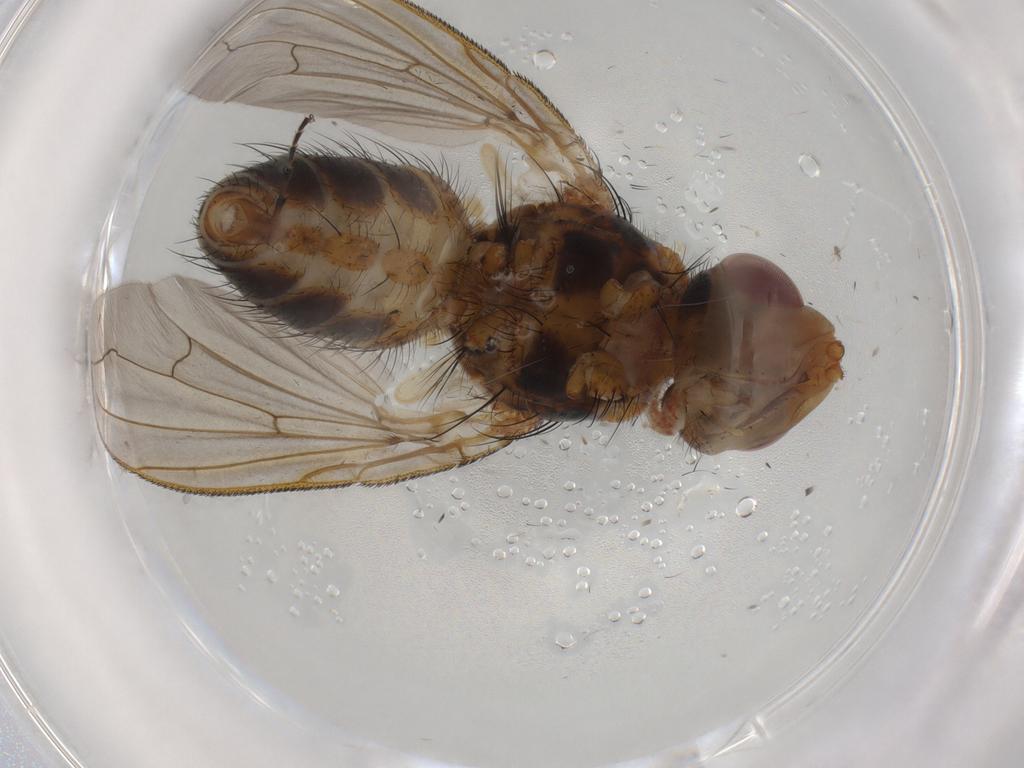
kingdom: Animalia
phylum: Arthropoda
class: Insecta
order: Diptera
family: Tachinidae
